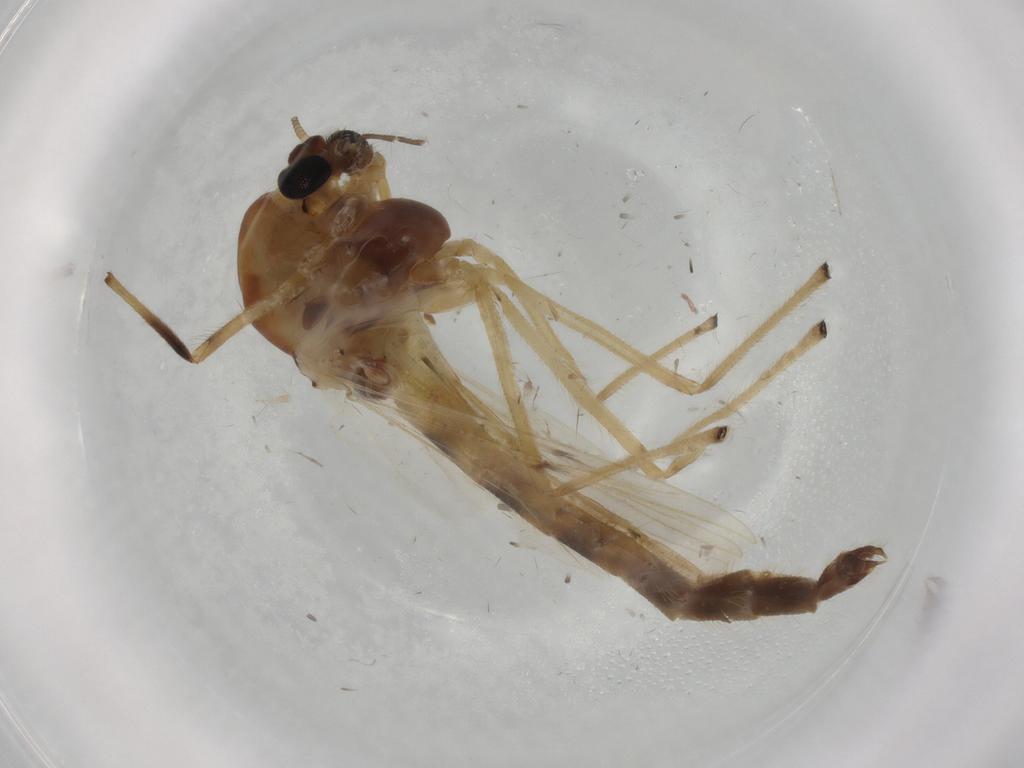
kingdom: Animalia
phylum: Arthropoda
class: Insecta
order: Diptera
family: Chironomidae
